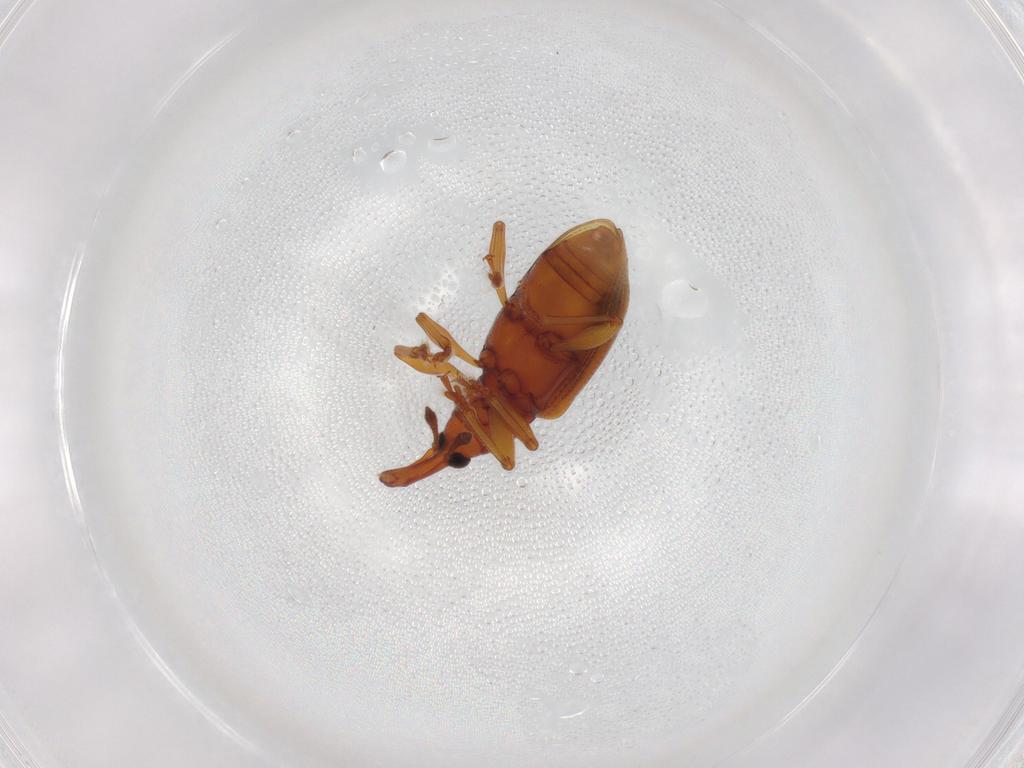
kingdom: Animalia
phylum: Arthropoda
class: Insecta
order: Coleoptera
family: Curculionidae
